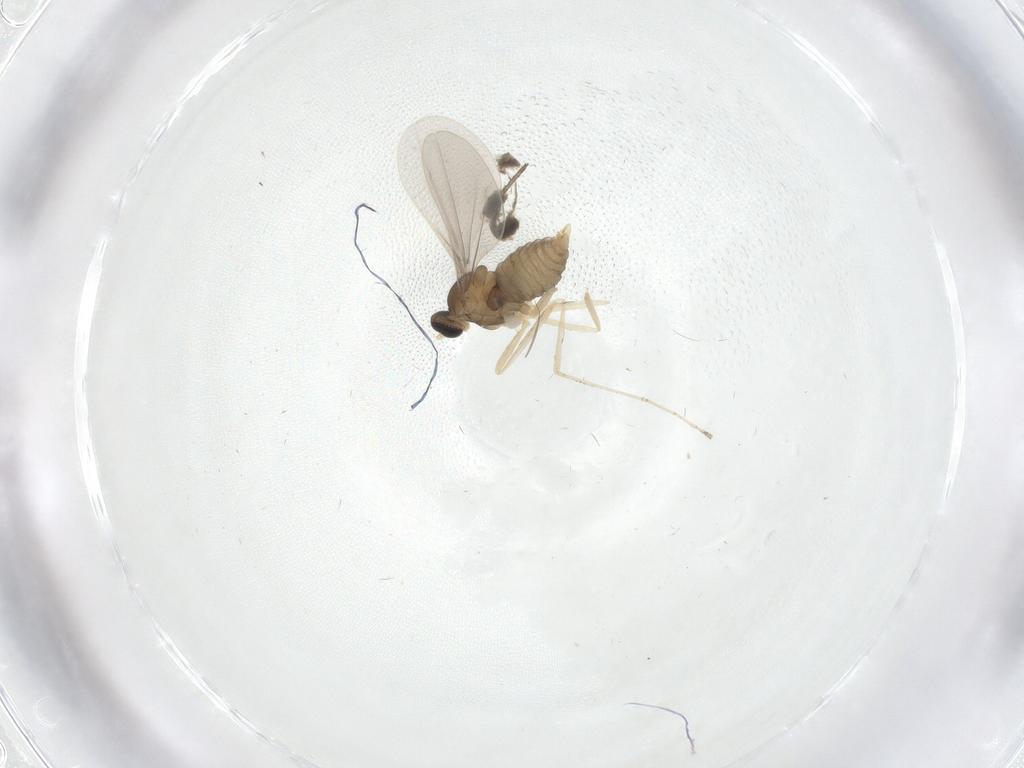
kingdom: Animalia
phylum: Arthropoda
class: Insecta
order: Diptera
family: Cecidomyiidae
